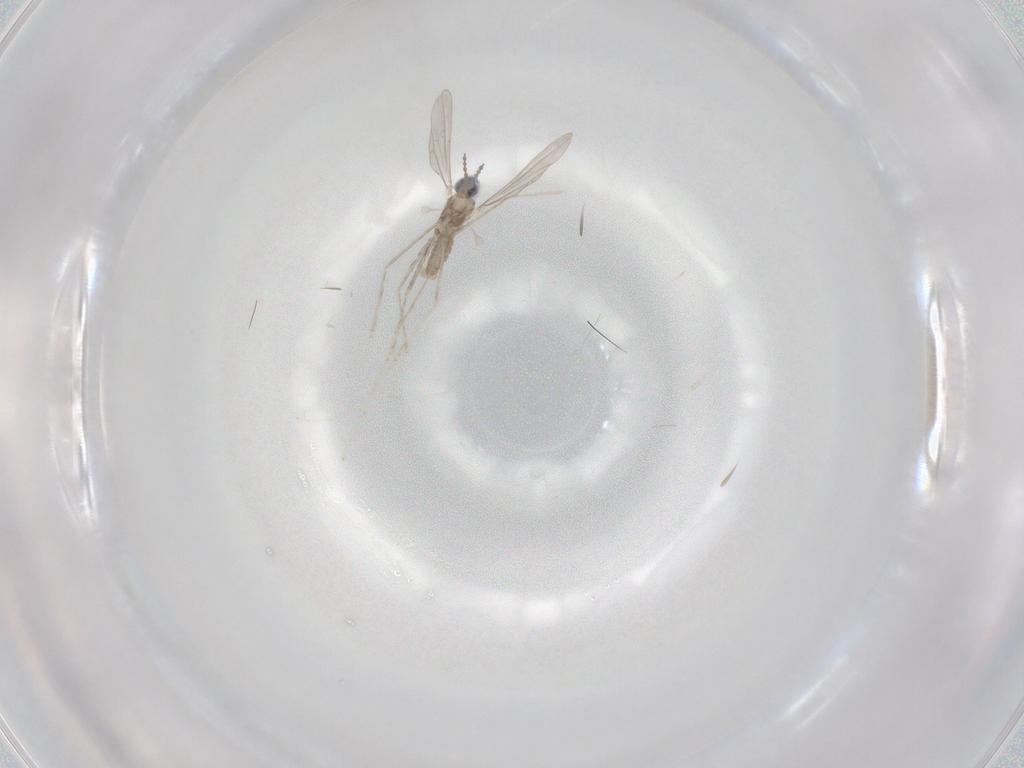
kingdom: Animalia
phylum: Arthropoda
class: Insecta
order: Diptera
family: Cecidomyiidae
